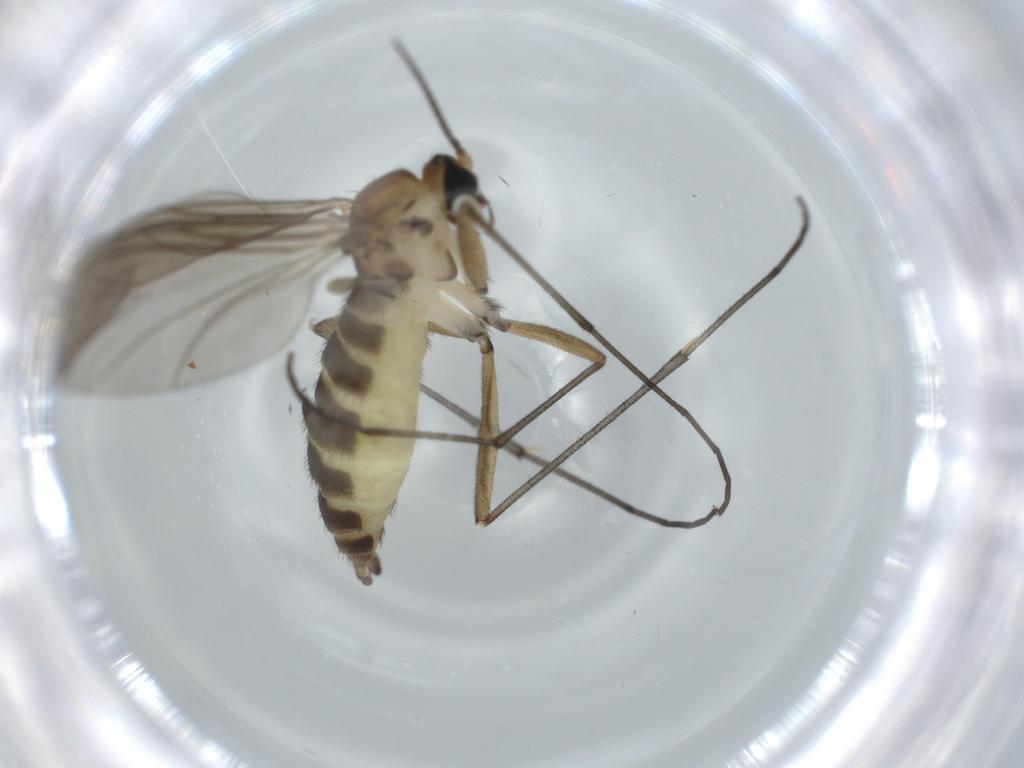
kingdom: Animalia
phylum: Arthropoda
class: Insecta
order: Diptera
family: Sciaridae
